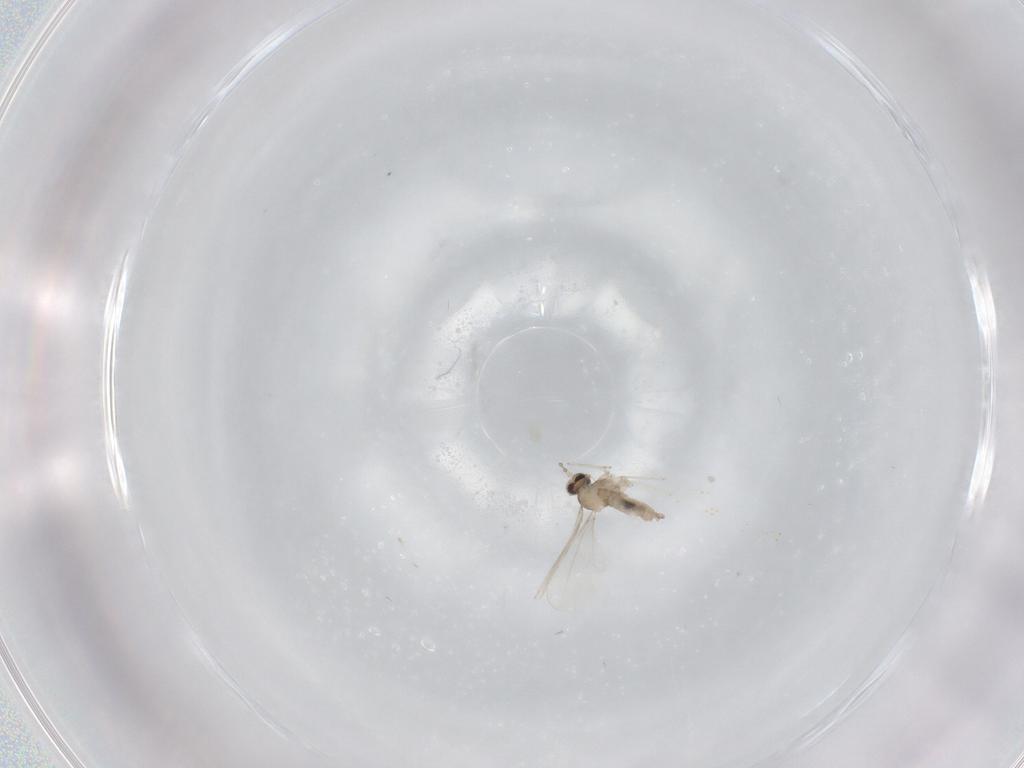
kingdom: Animalia
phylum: Arthropoda
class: Insecta
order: Diptera
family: Cecidomyiidae
